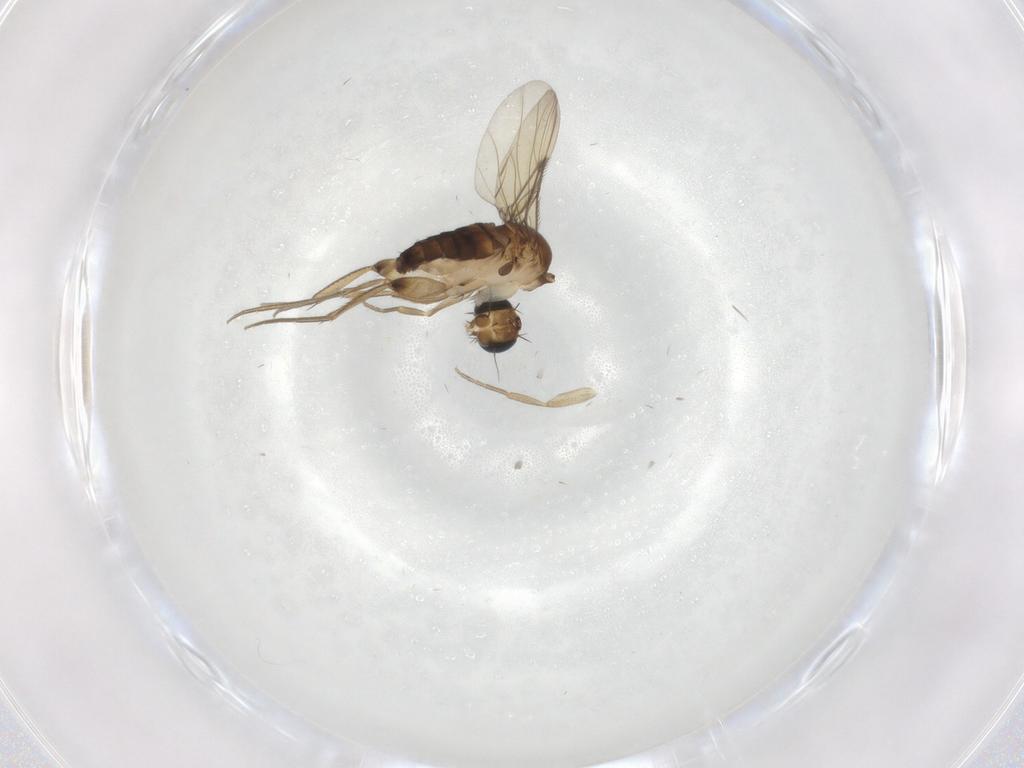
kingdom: Animalia
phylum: Arthropoda
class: Insecta
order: Diptera
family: Phoridae
